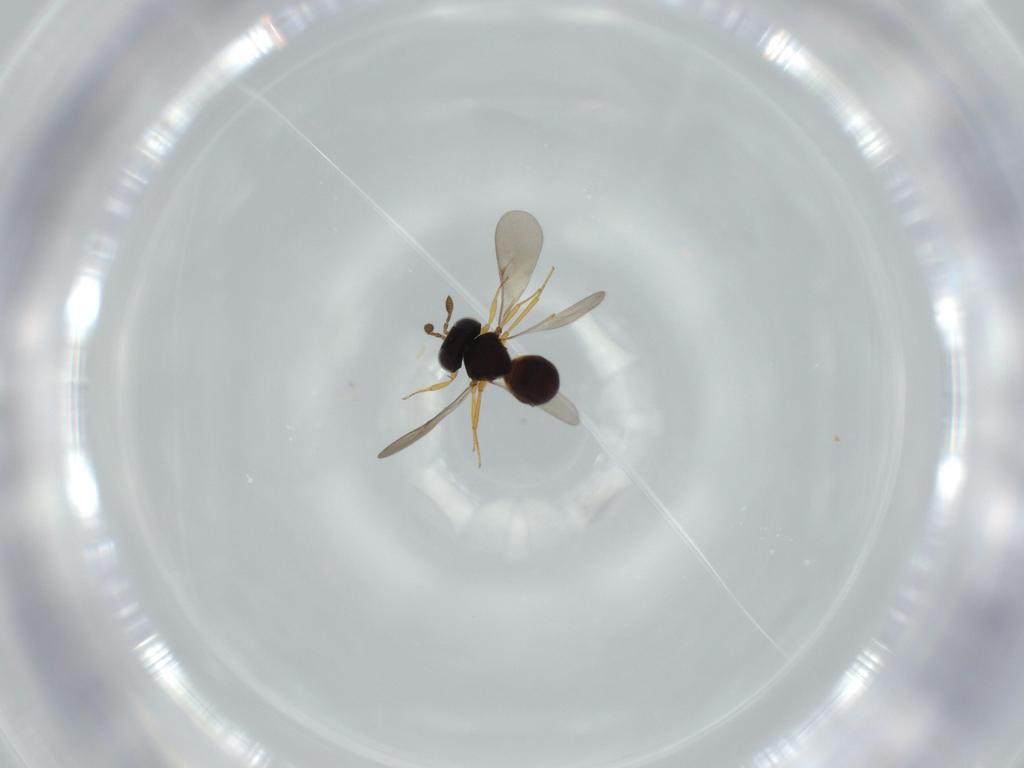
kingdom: Animalia
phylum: Arthropoda
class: Insecta
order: Hymenoptera
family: Scelionidae
